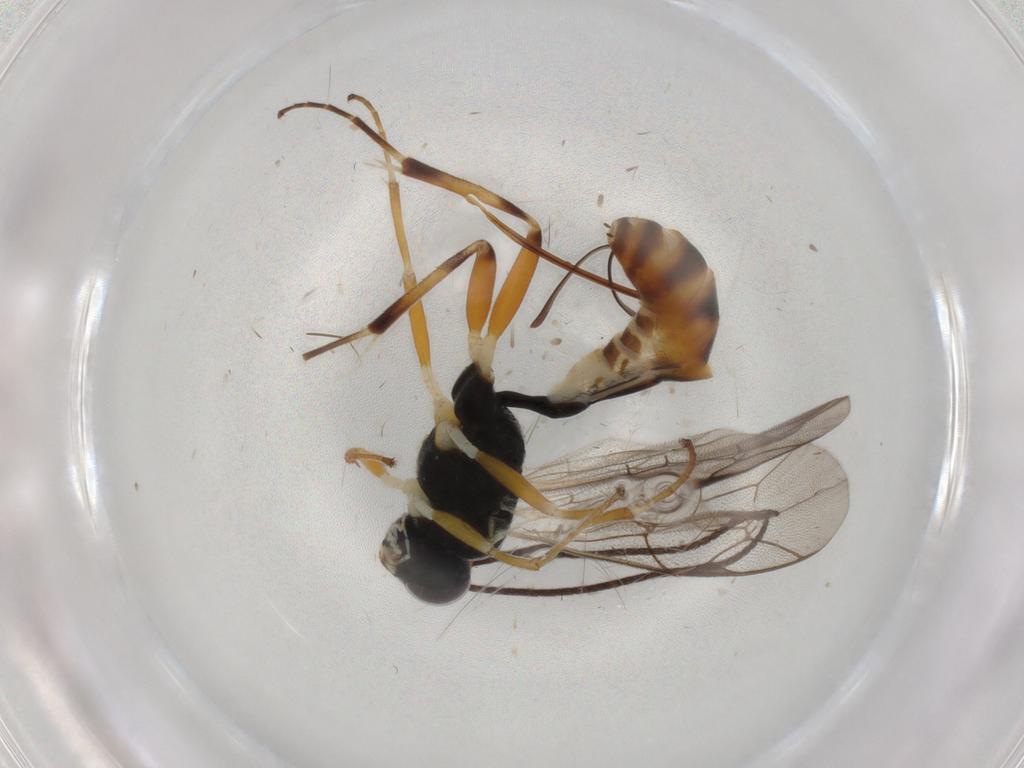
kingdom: Animalia
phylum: Arthropoda
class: Insecta
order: Hymenoptera
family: Ichneumonidae
